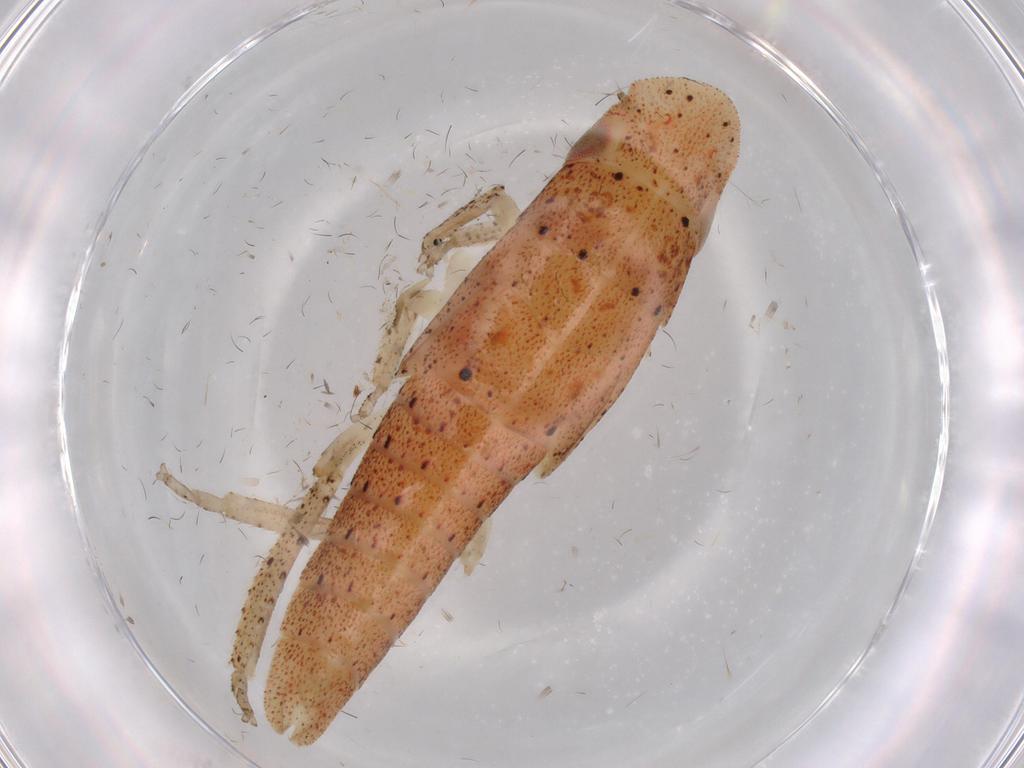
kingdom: Animalia
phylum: Arthropoda
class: Insecta
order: Hemiptera
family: Cicadellidae
